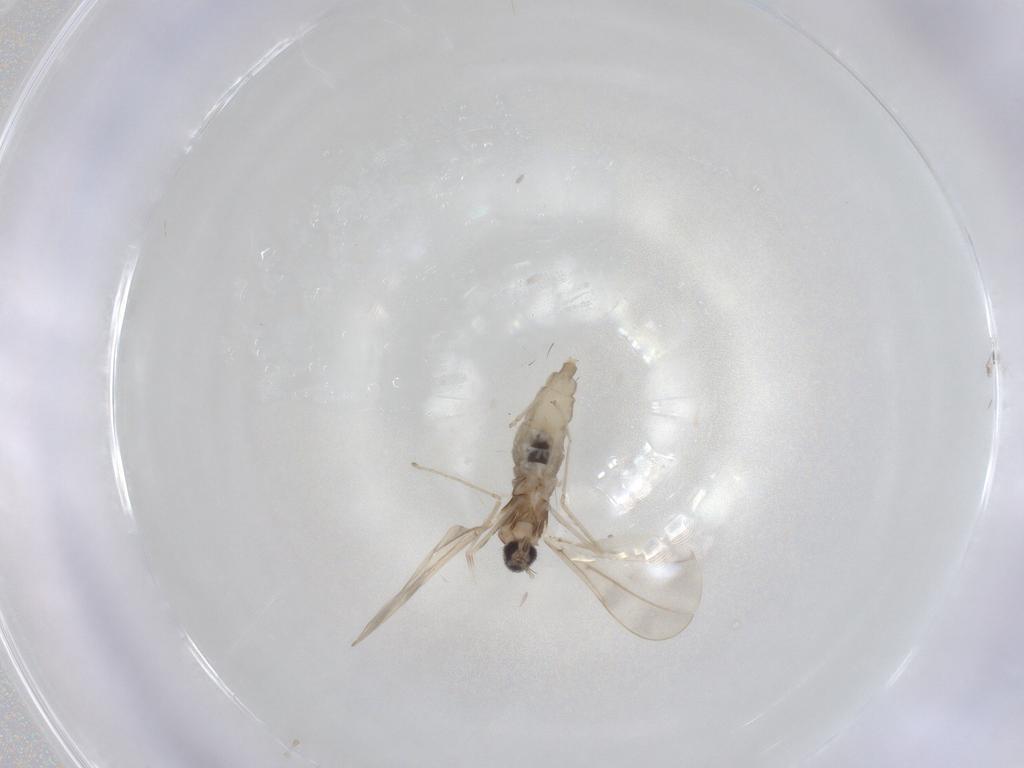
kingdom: Animalia
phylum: Arthropoda
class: Insecta
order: Diptera
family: Cecidomyiidae
